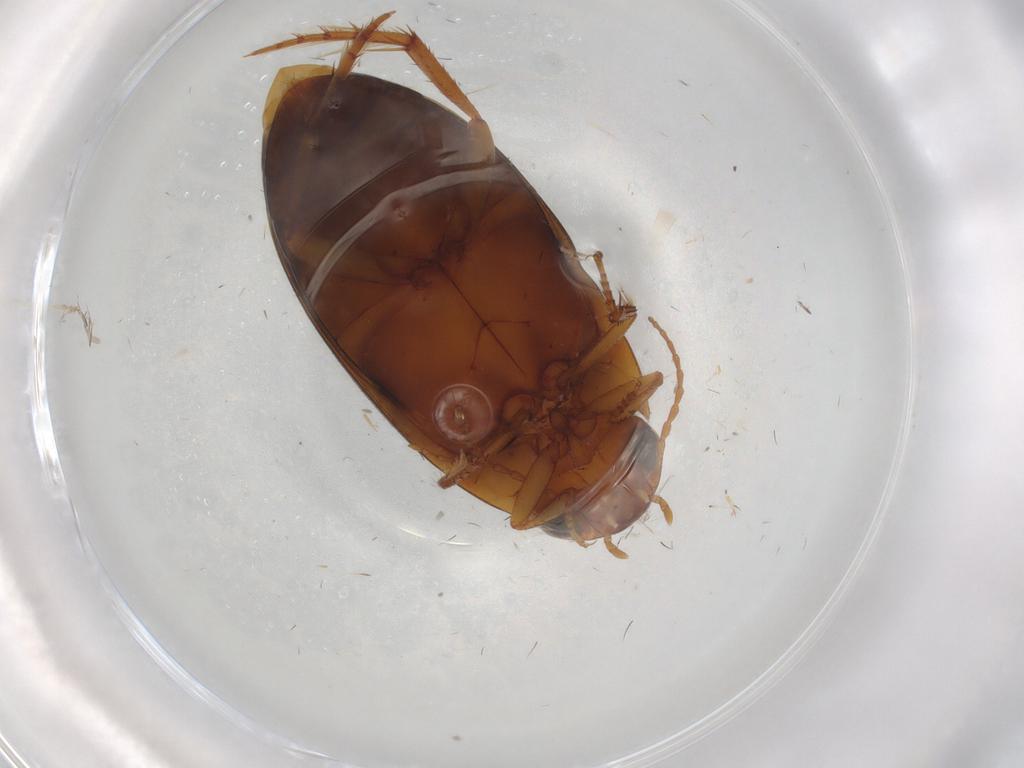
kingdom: Animalia
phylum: Arthropoda
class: Insecta
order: Coleoptera
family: Dytiscidae
